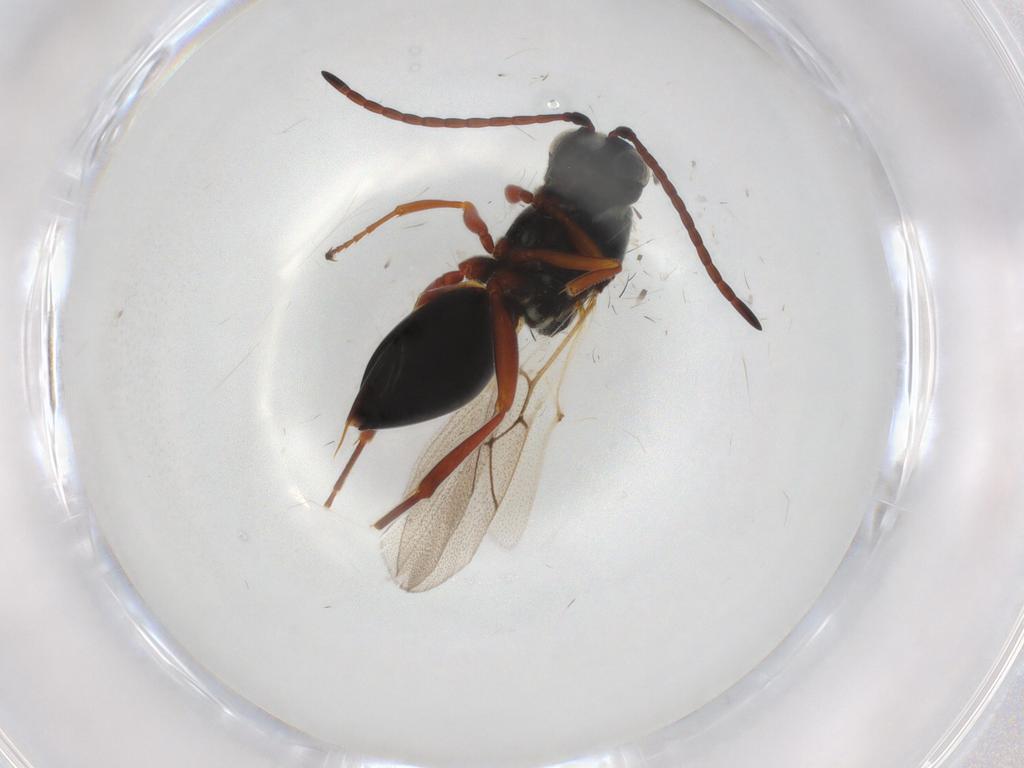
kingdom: Animalia
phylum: Arthropoda
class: Insecta
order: Hymenoptera
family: Figitidae
